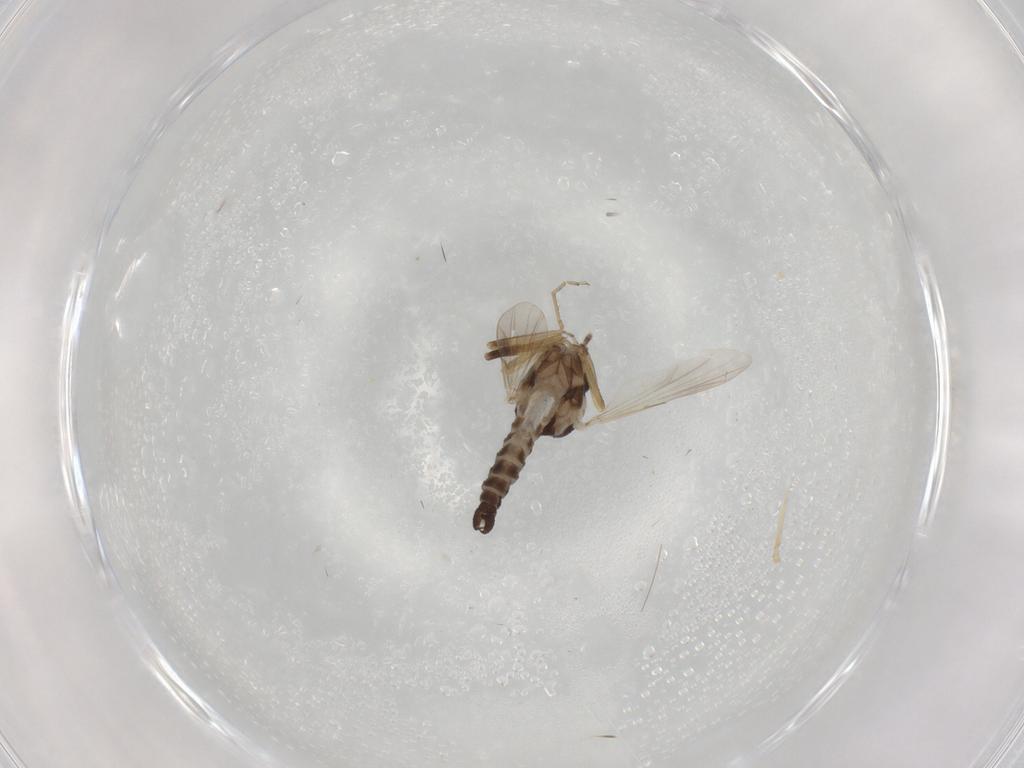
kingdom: Animalia
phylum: Arthropoda
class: Insecta
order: Diptera
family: Ceratopogonidae
